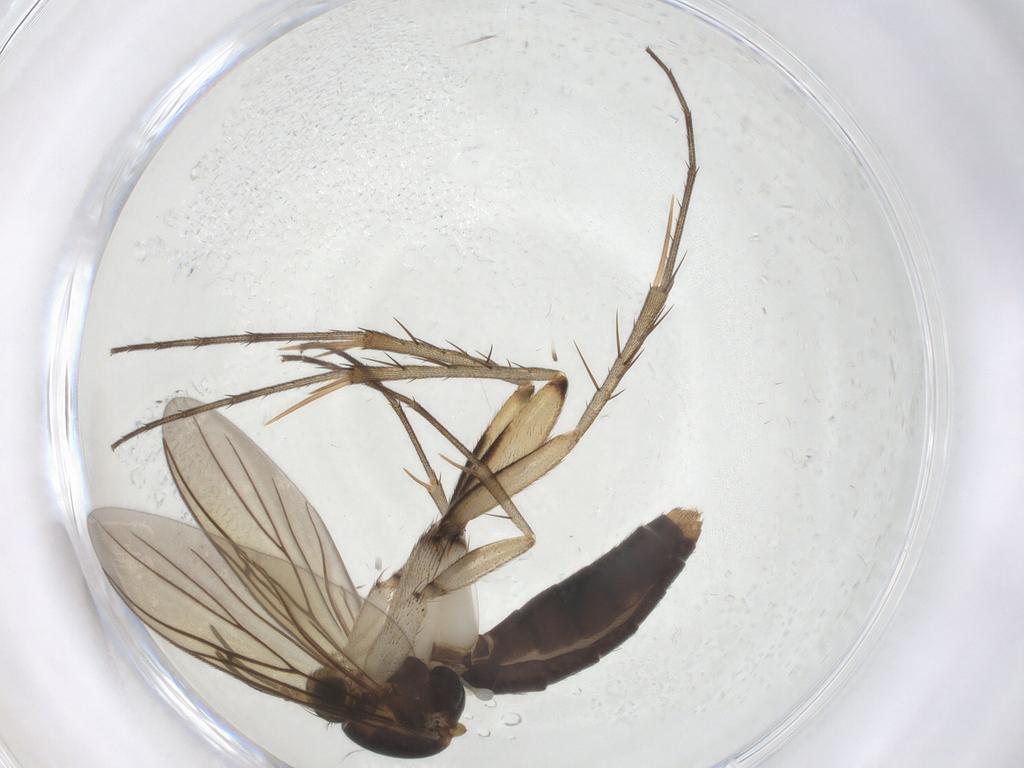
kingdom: Animalia
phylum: Arthropoda
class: Insecta
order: Diptera
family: Mycetophilidae
